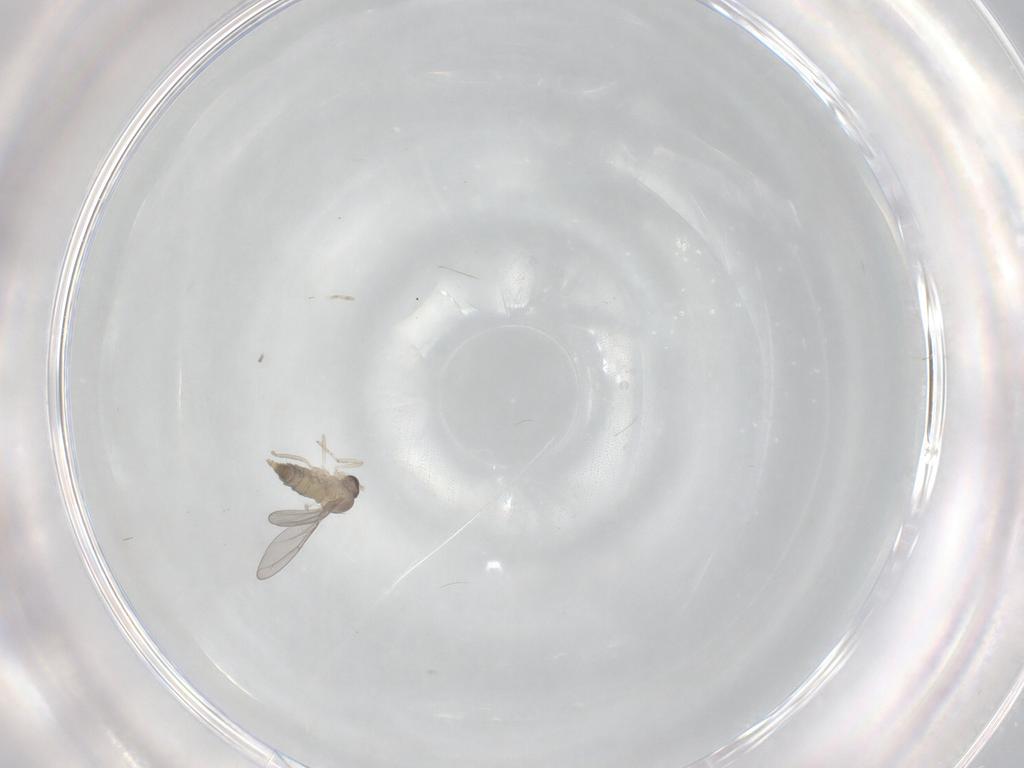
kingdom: Animalia
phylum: Arthropoda
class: Insecta
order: Diptera
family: Cecidomyiidae
